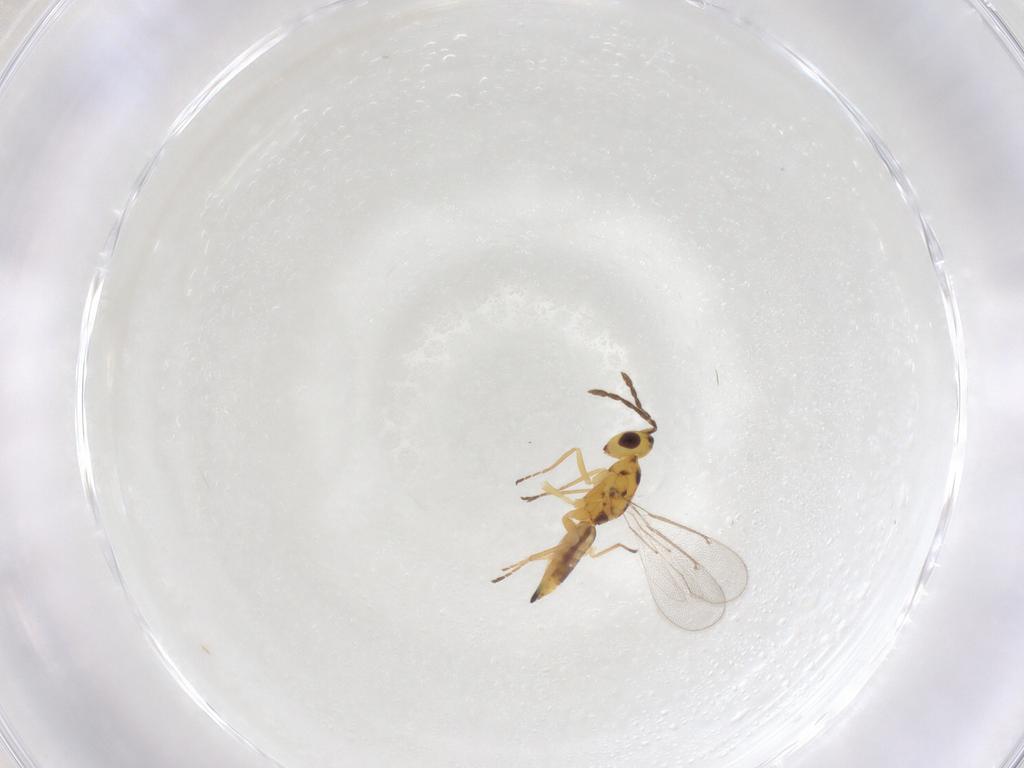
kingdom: Animalia
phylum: Arthropoda
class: Insecta
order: Hymenoptera
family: Eulophidae
